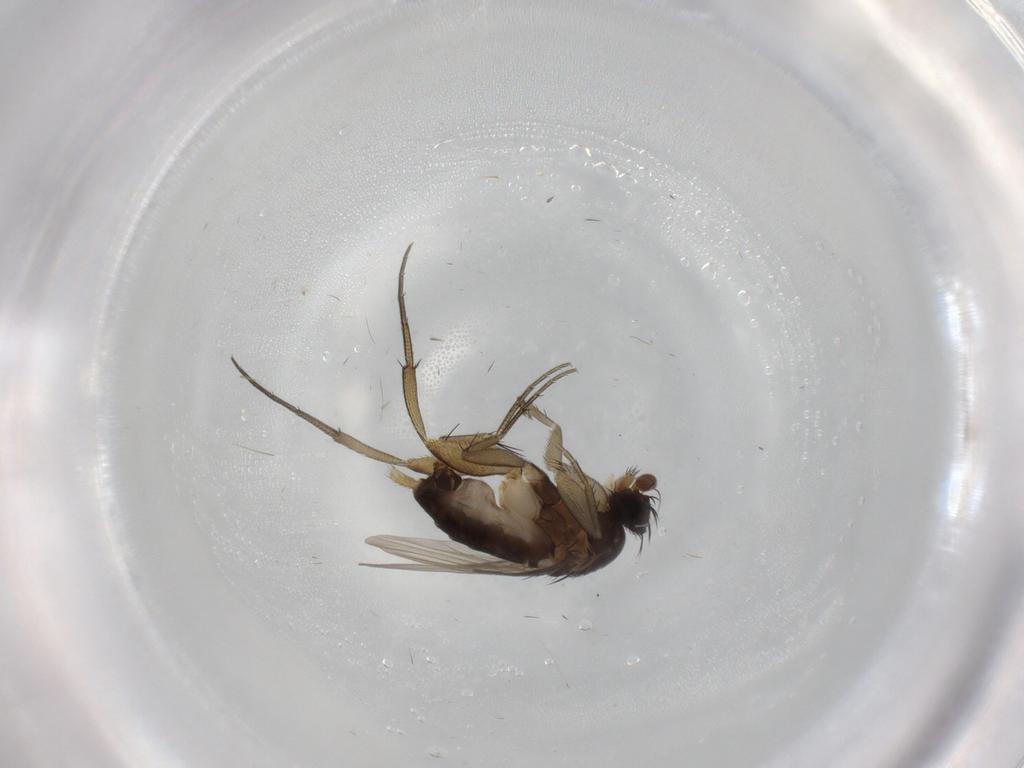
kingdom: Animalia
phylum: Arthropoda
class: Insecta
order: Diptera
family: Phoridae
